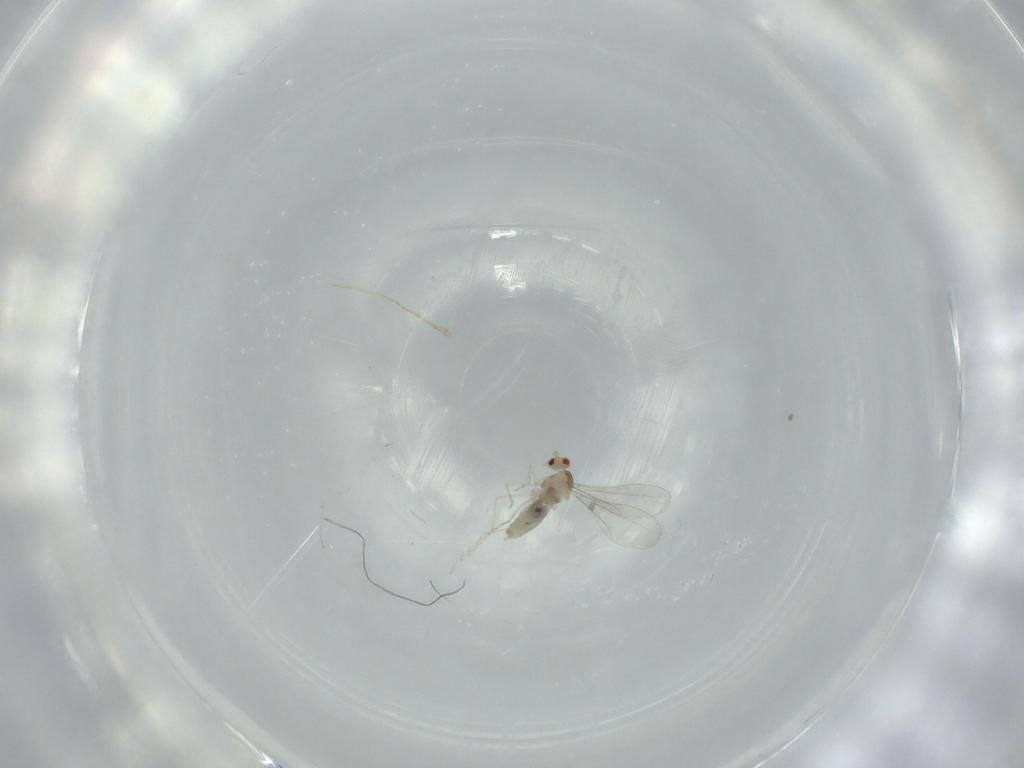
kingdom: Animalia
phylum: Arthropoda
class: Insecta
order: Diptera
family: Cecidomyiidae
